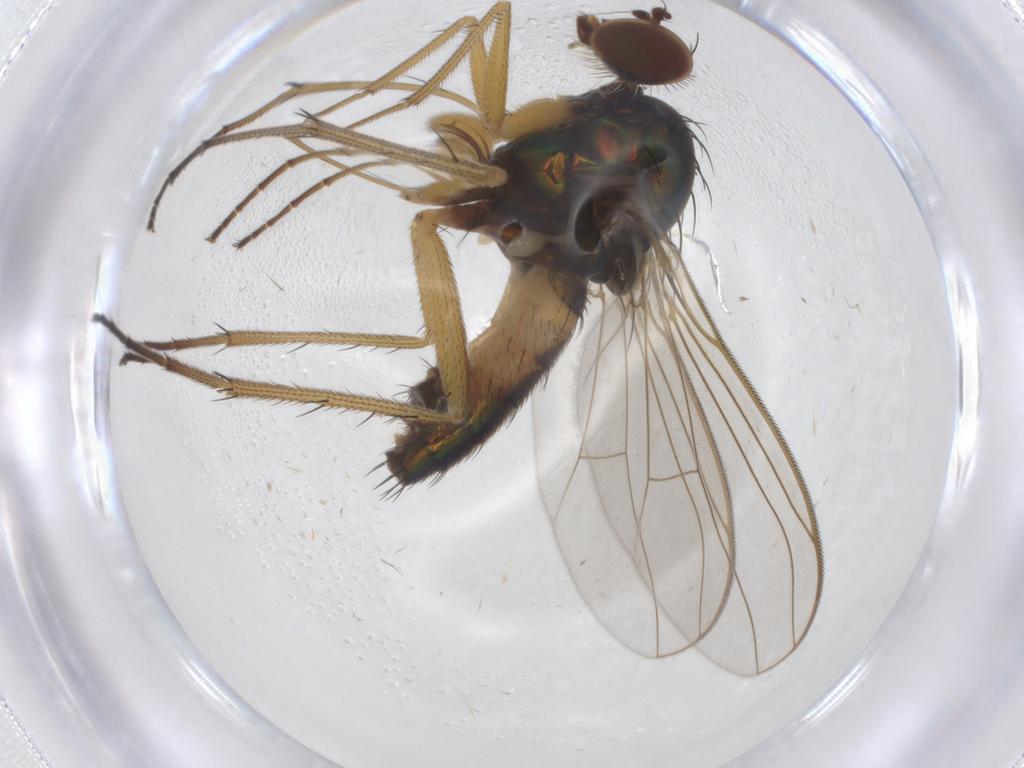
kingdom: Animalia
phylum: Arthropoda
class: Insecta
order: Diptera
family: Dolichopodidae
